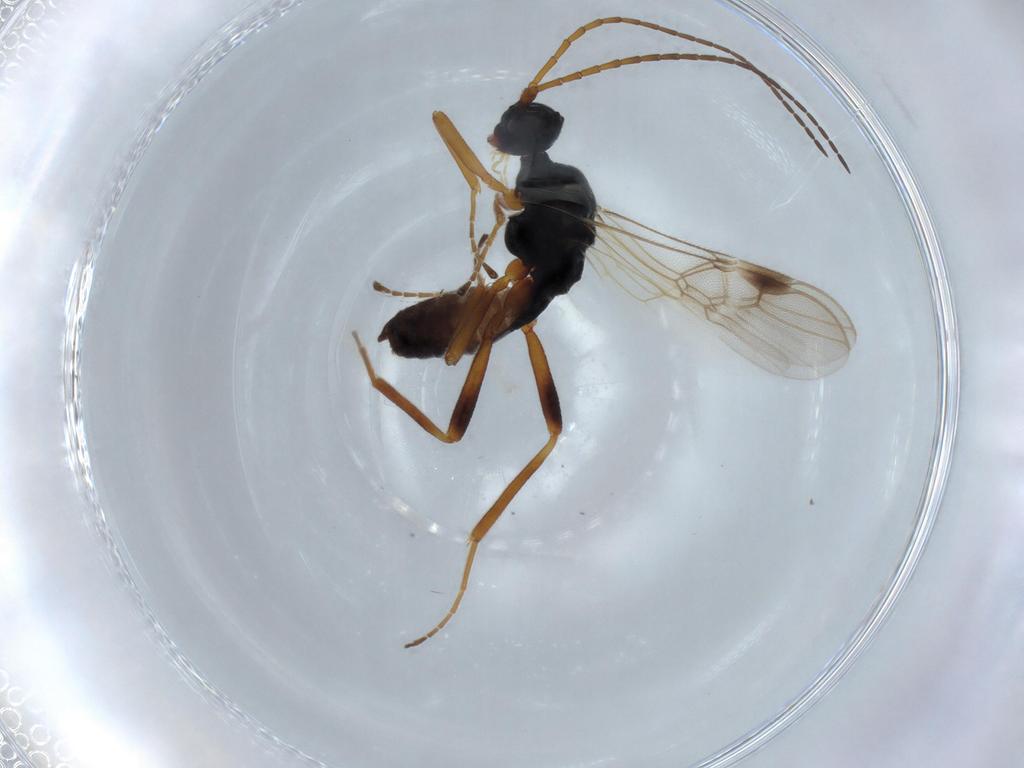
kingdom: Animalia
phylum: Arthropoda
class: Insecta
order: Hymenoptera
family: Braconidae
